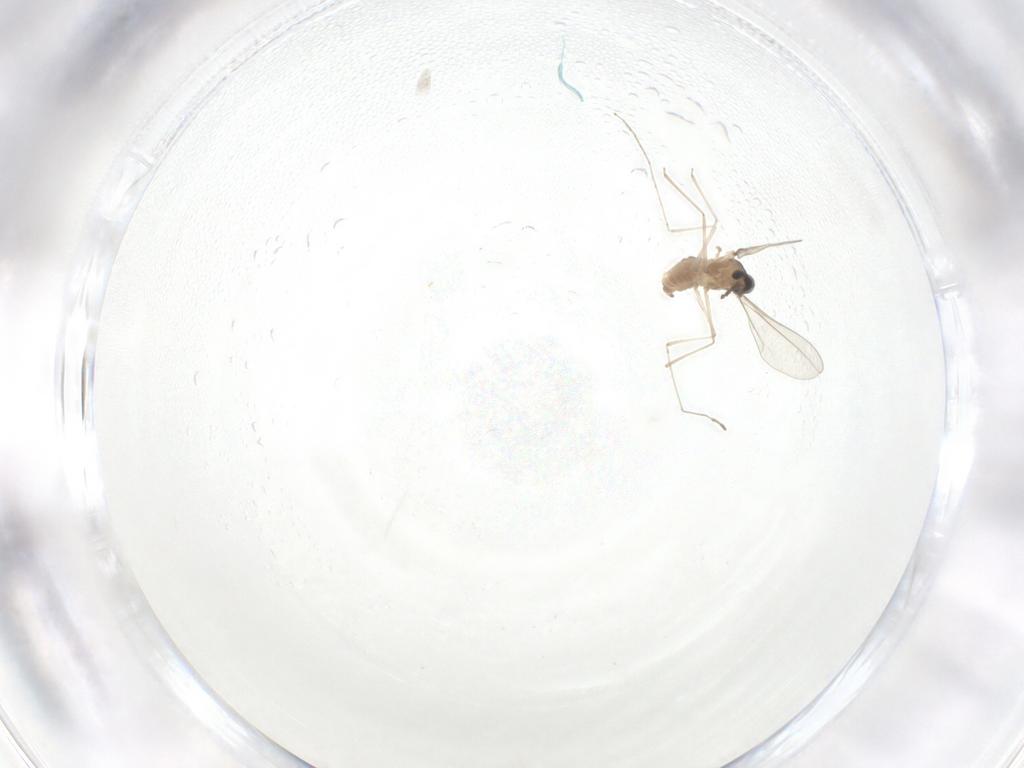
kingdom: Animalia
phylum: Arthropoda
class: Insecta
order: Diptera
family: Cecidomyiidae
